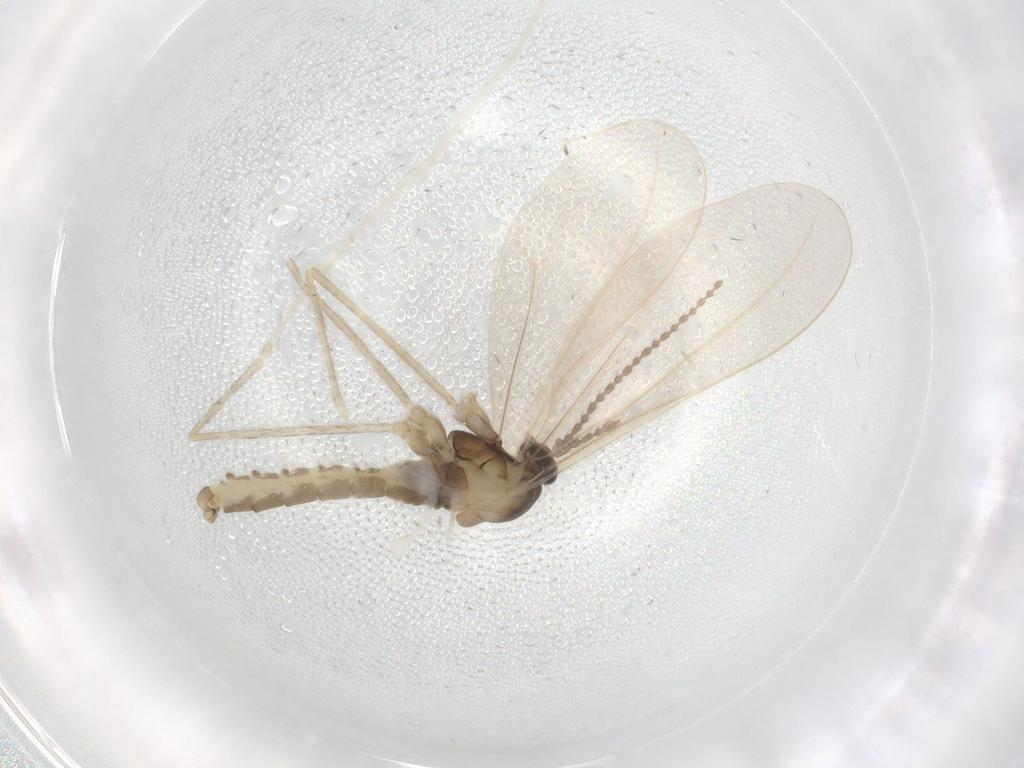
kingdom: Animalia
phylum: Arthropoda
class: Insecta
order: Diptera
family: Cecidomyiidae
